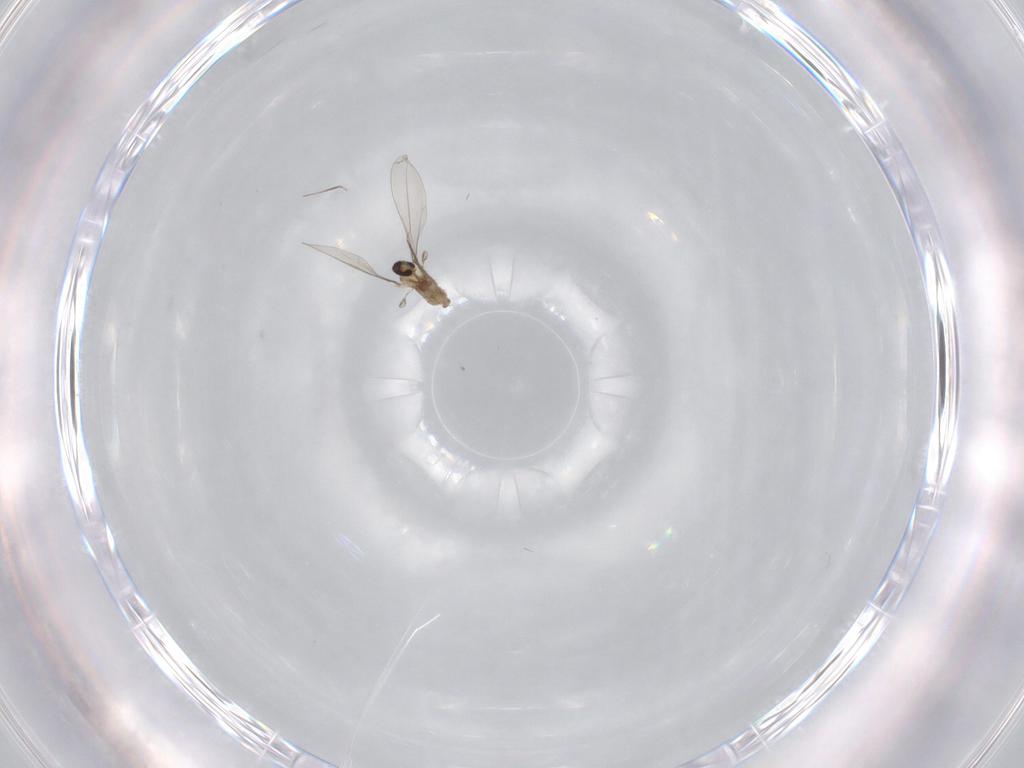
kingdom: Animalia
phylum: Arthropoda
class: Insecta
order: Diptera
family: Cecidomyiidae
